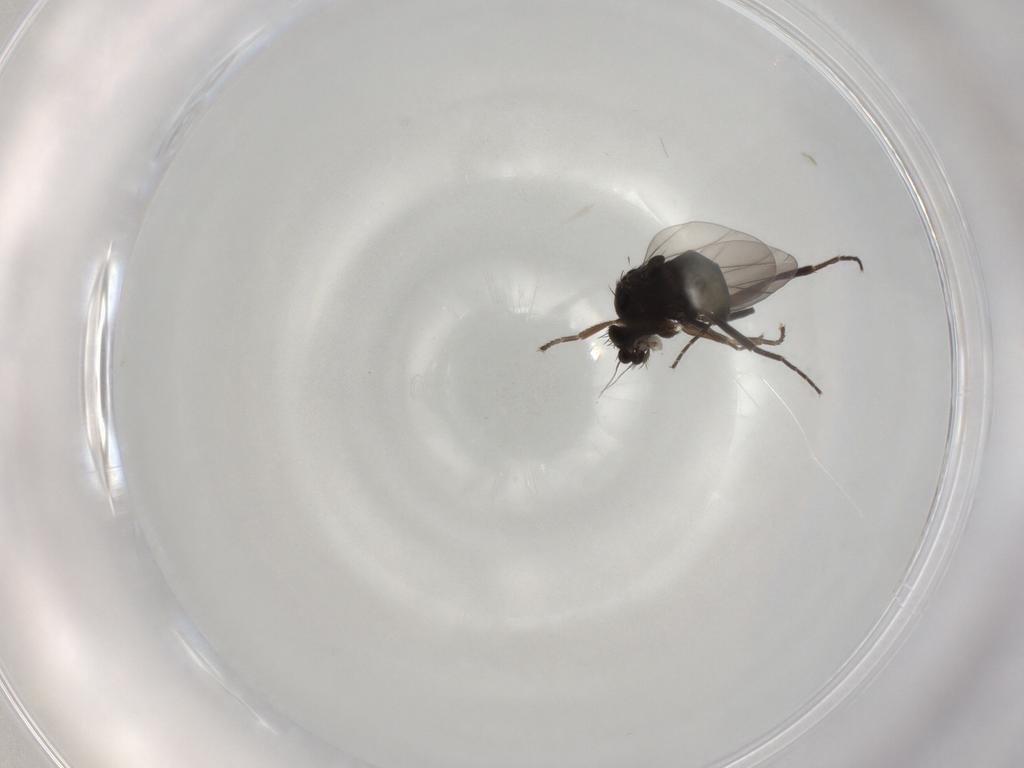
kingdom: Animalia
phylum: Arthropoda
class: Insecta
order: Diptera
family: Phoridae
